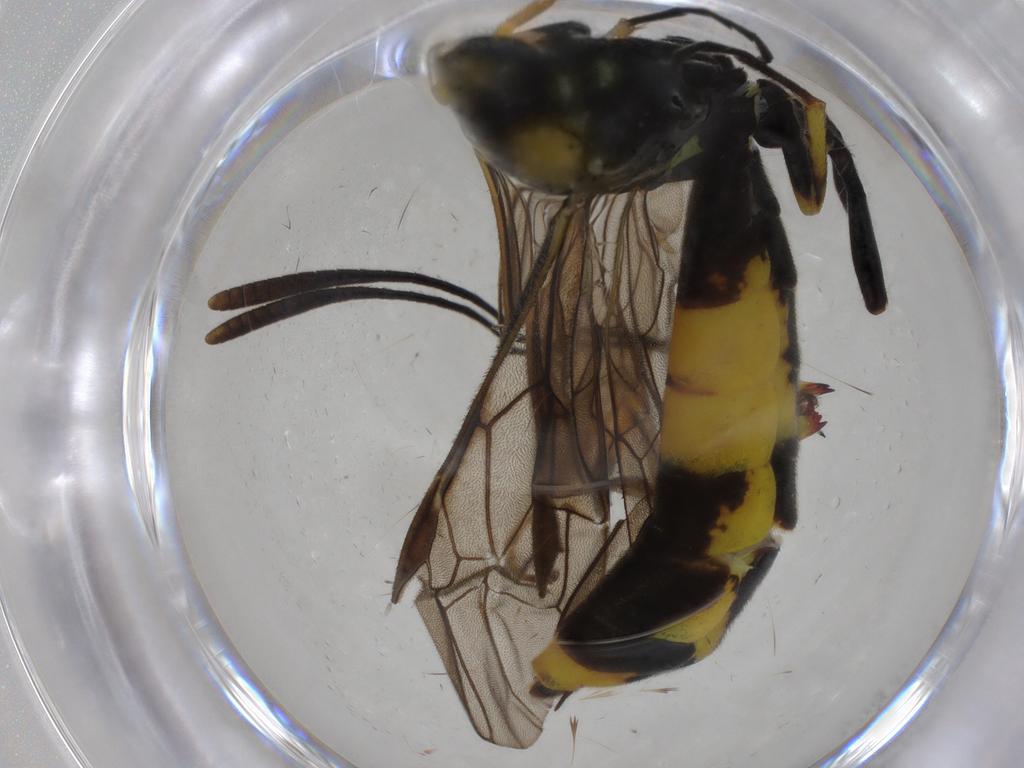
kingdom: Animalia
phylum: Arthropoda
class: Insecta
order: Hymenoptera
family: Cephidae
